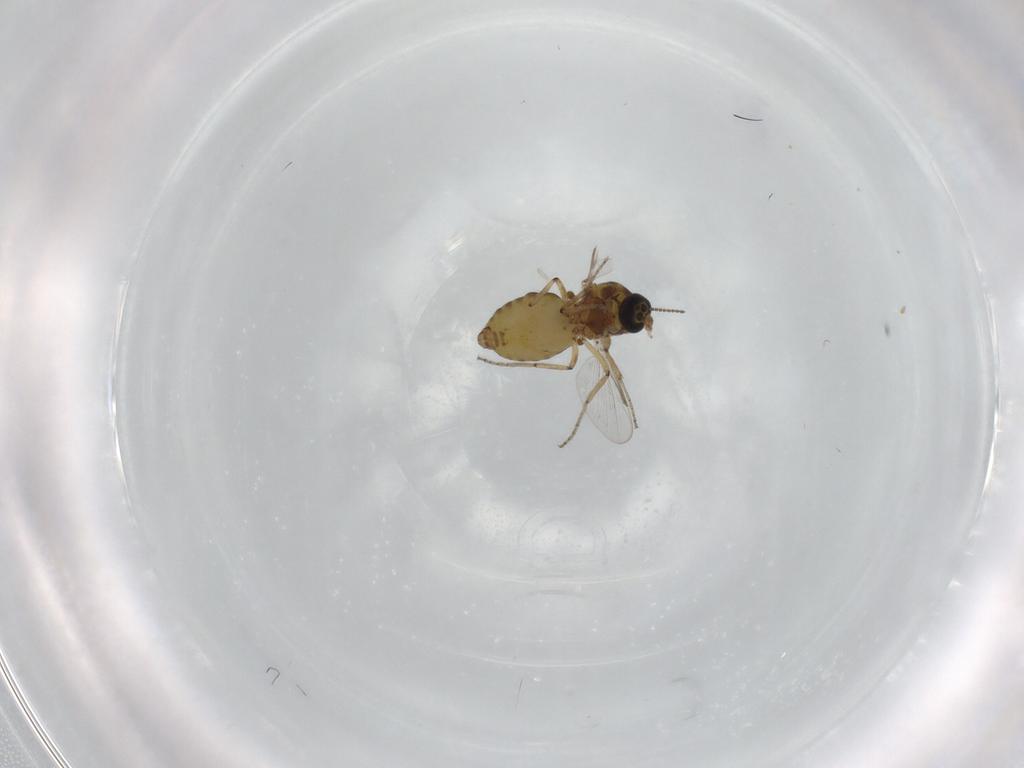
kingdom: Animalia
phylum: Arthropoda
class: Insecta
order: Diptera
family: Ceratopogonidae
